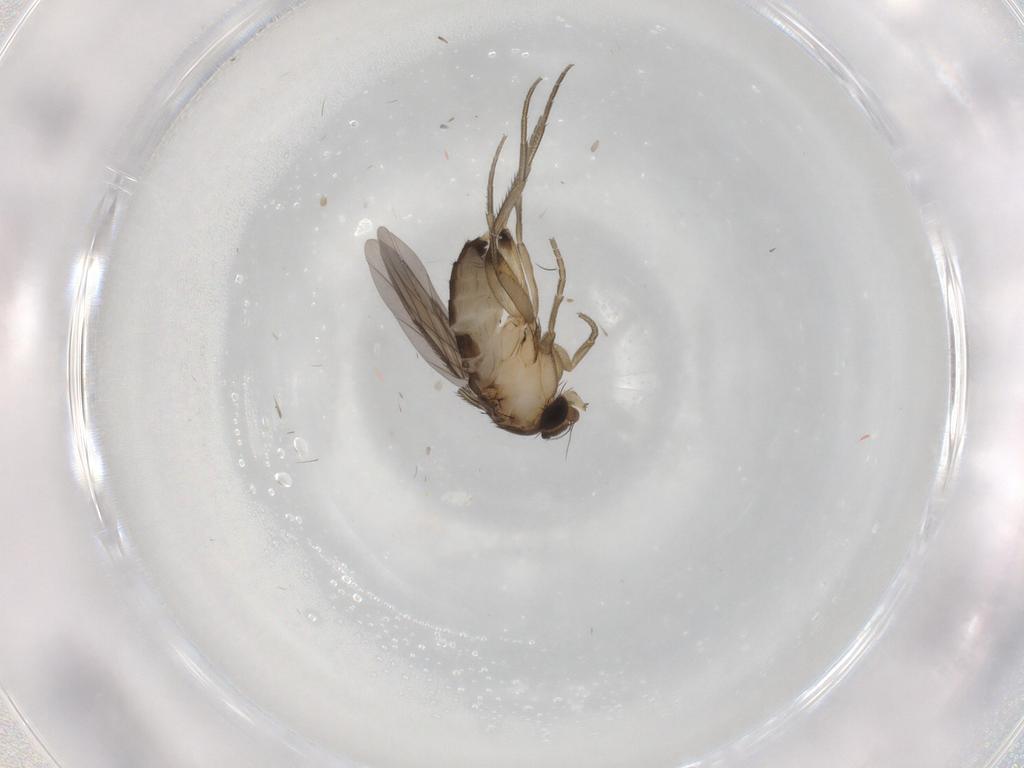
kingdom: Animalia
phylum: Arthropoda
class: Insecta
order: Diptera
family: Phoridae
